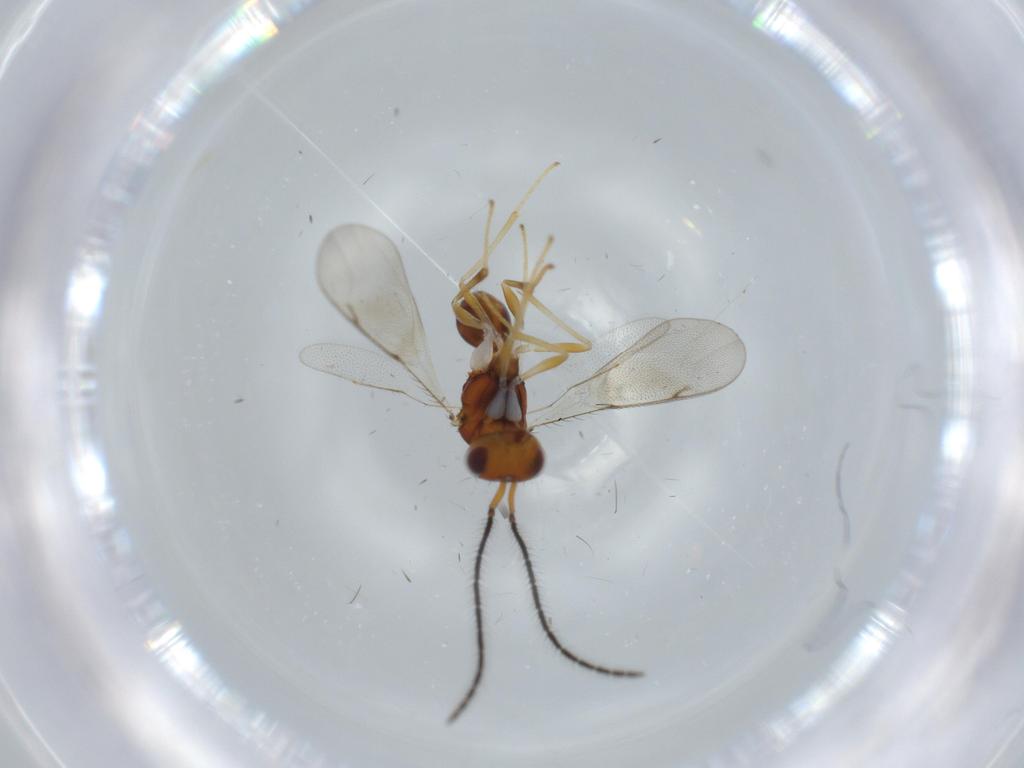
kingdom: Animalia
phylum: Arthropoda
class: Insecta
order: Hymenoptera
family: Diparidae
